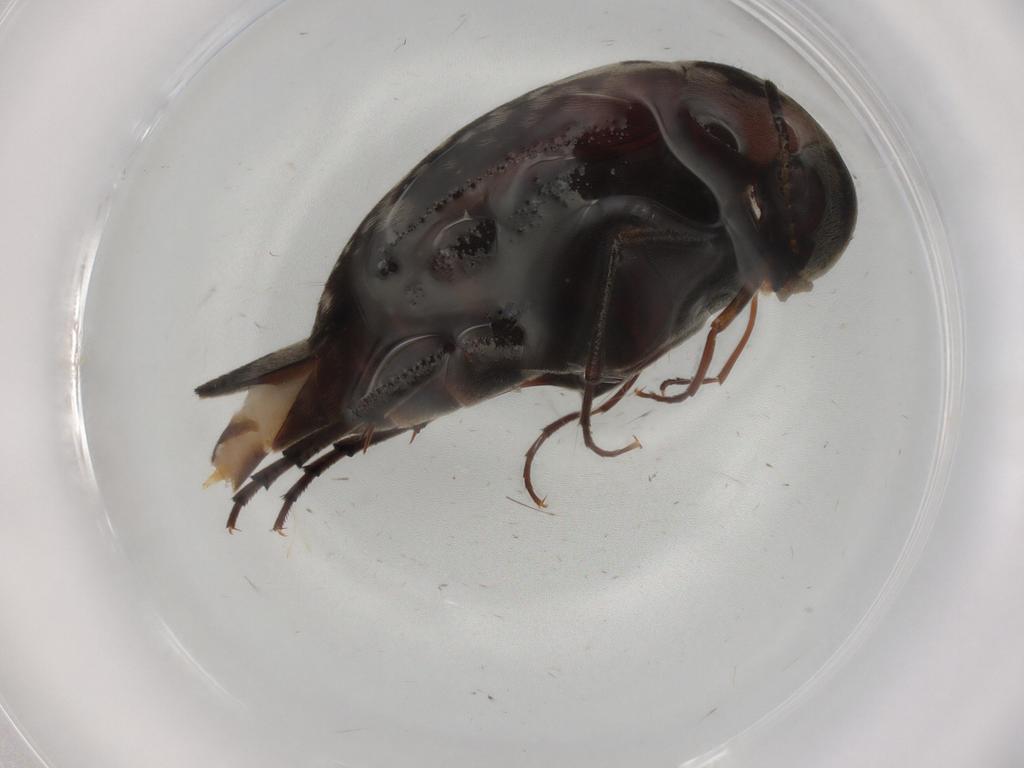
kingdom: Animalia
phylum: Arthropoda
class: Insecta
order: Coleoptera
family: Mordellidae
